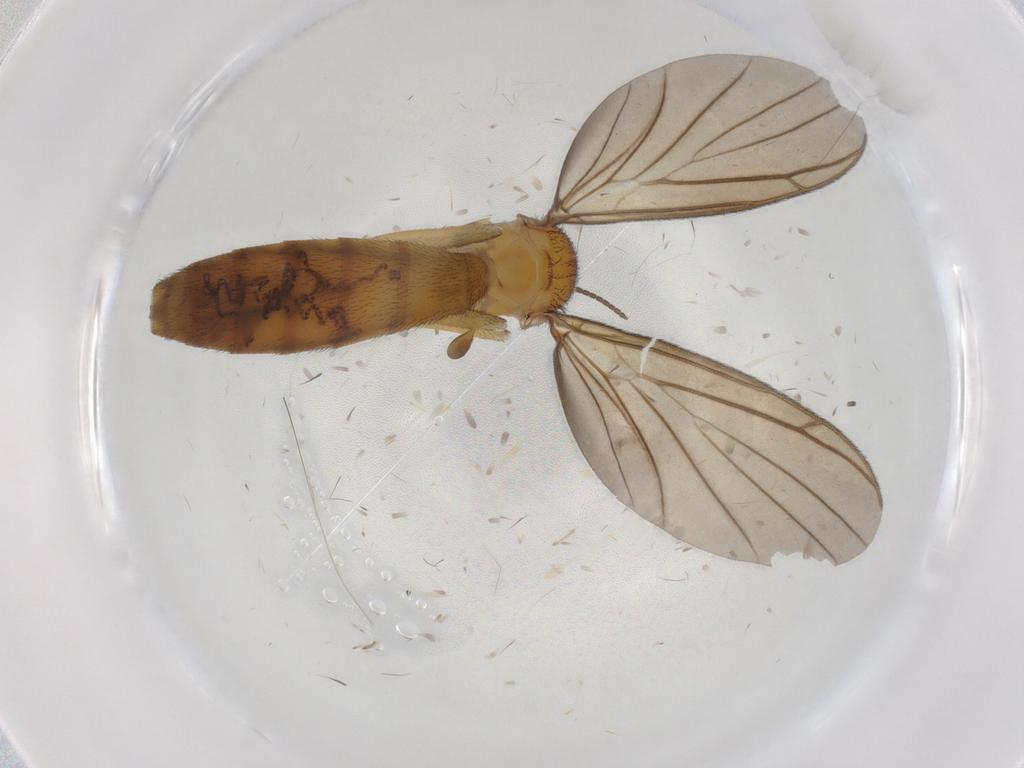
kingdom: Animalia
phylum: Arthropoda
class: Insecta
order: Diptera
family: Keroplatidae
